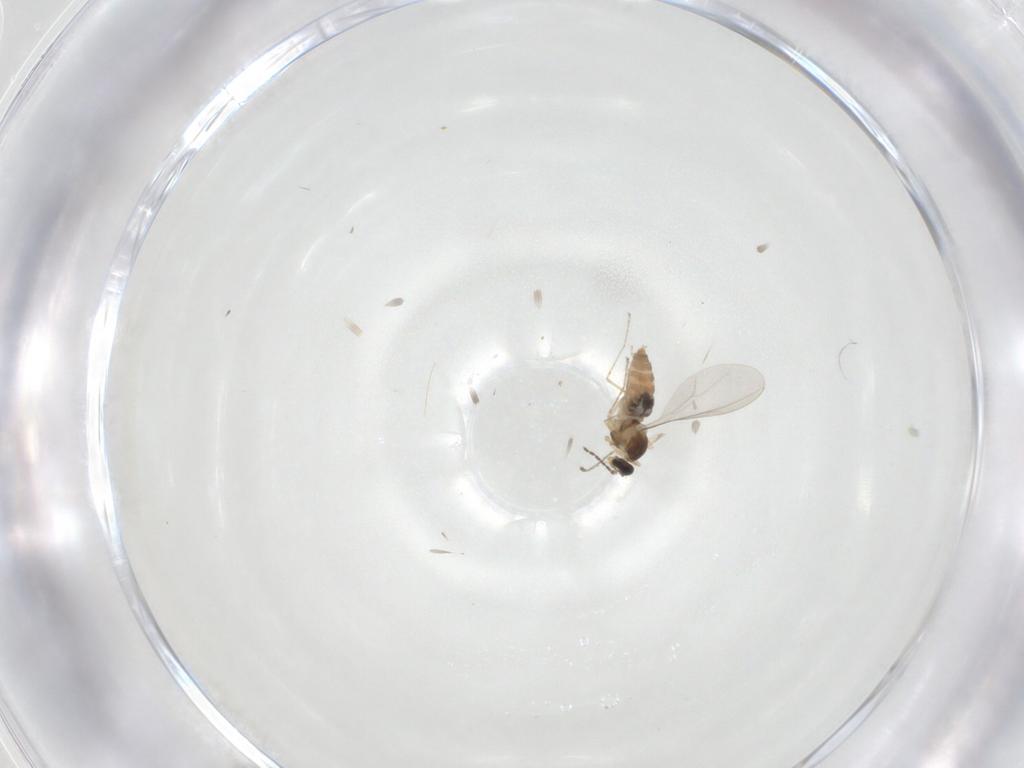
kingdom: Animalia
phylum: Arthropoda
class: Insecta
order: Diptera
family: Cecidomyiidae
